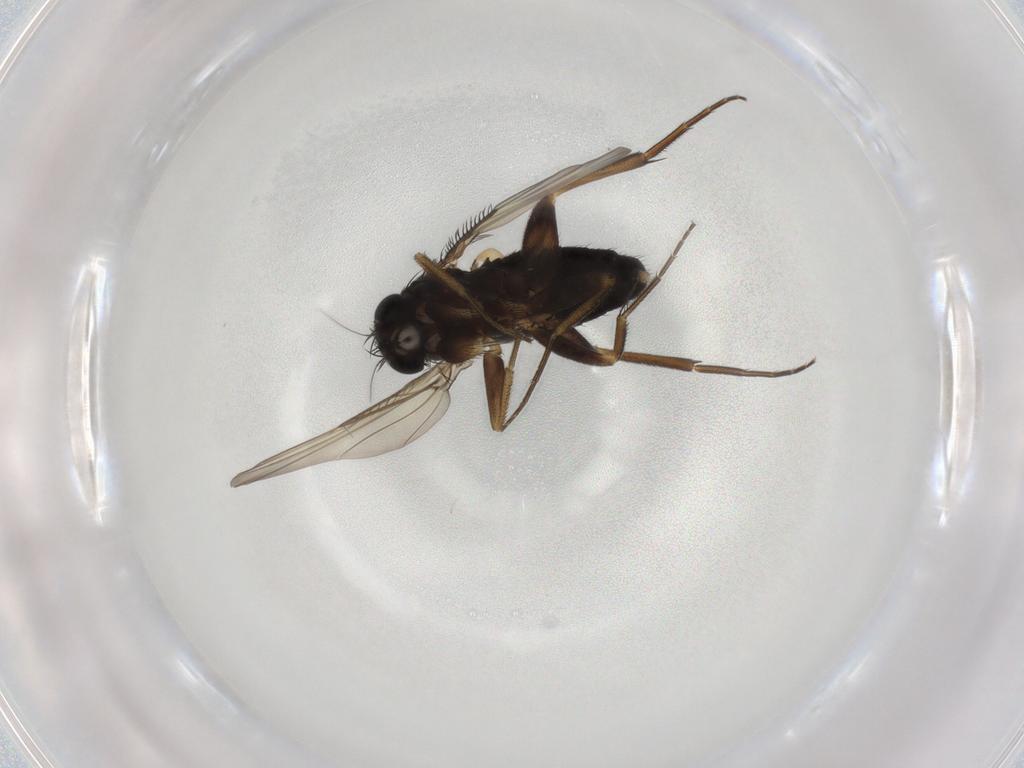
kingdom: Animalia
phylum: Arthropoda
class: Insecta
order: Diptera
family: Phoridae
